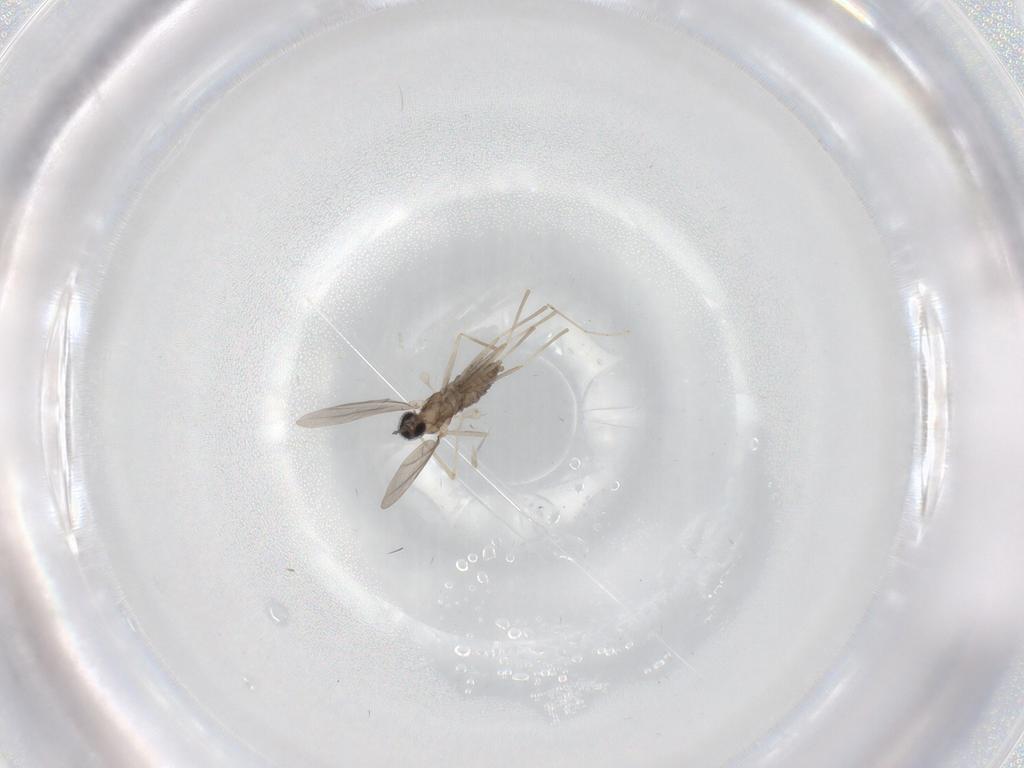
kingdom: Animalia
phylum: Arthropoda
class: Insecta
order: Diptera
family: Cecidomyiidae
